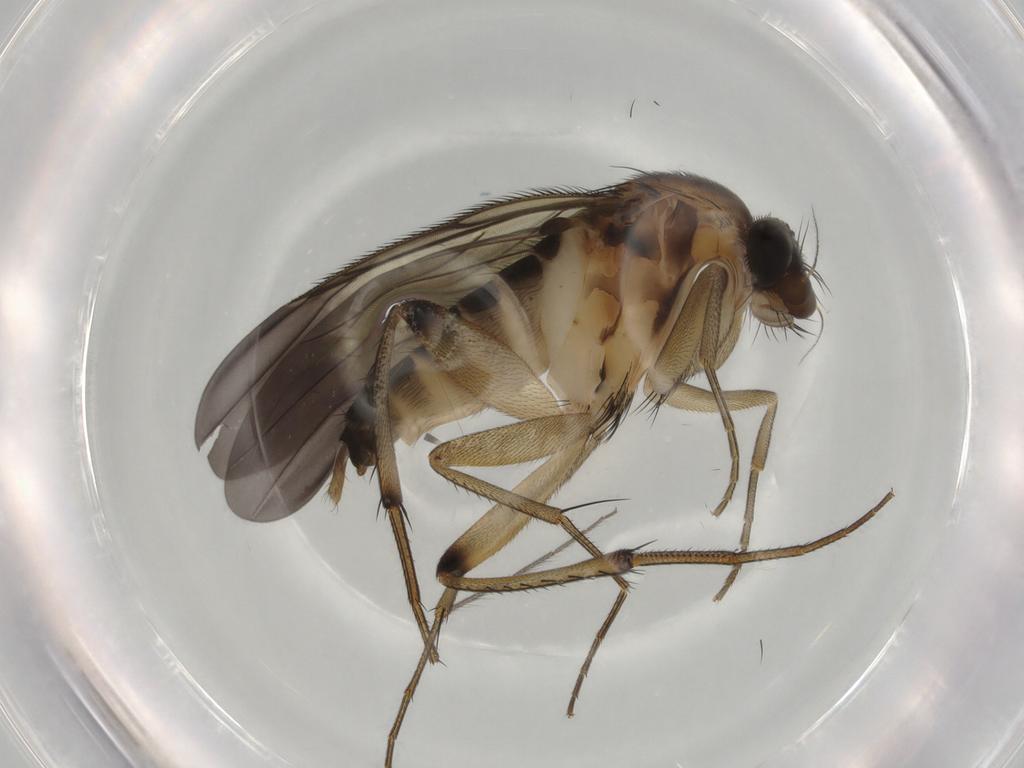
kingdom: Animalia
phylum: Arthropoda
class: Insecta
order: Diptera
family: Phoridae
